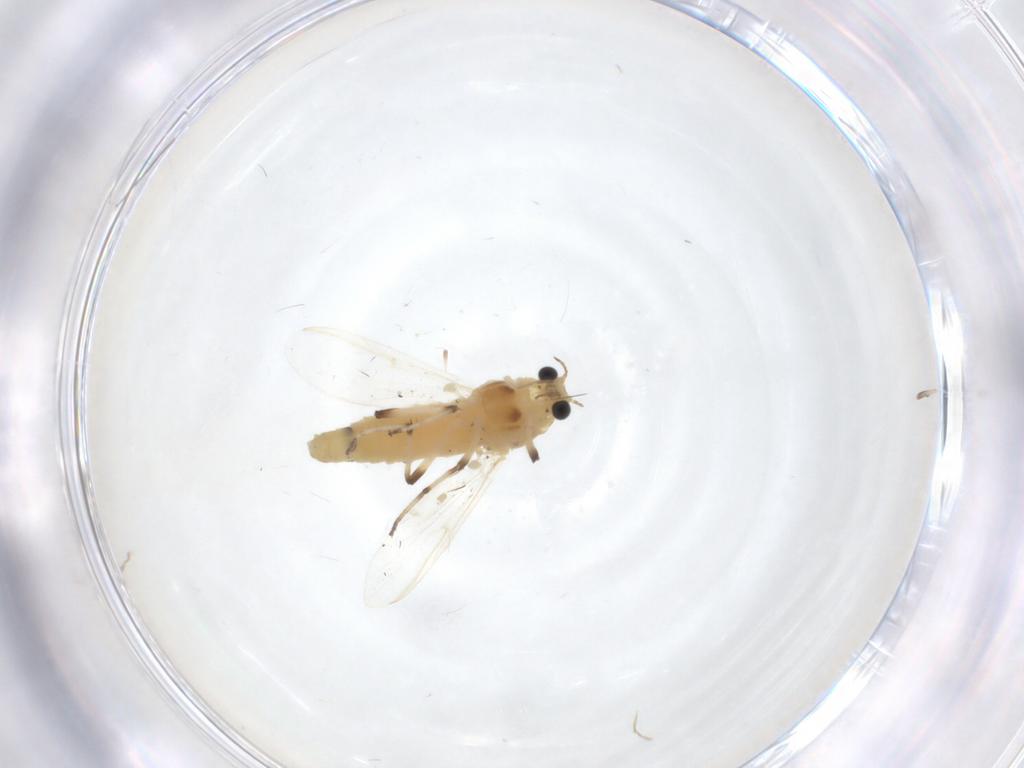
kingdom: Animalia
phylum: Arthropoda
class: Insecta
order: Diptera
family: Chironomidae
